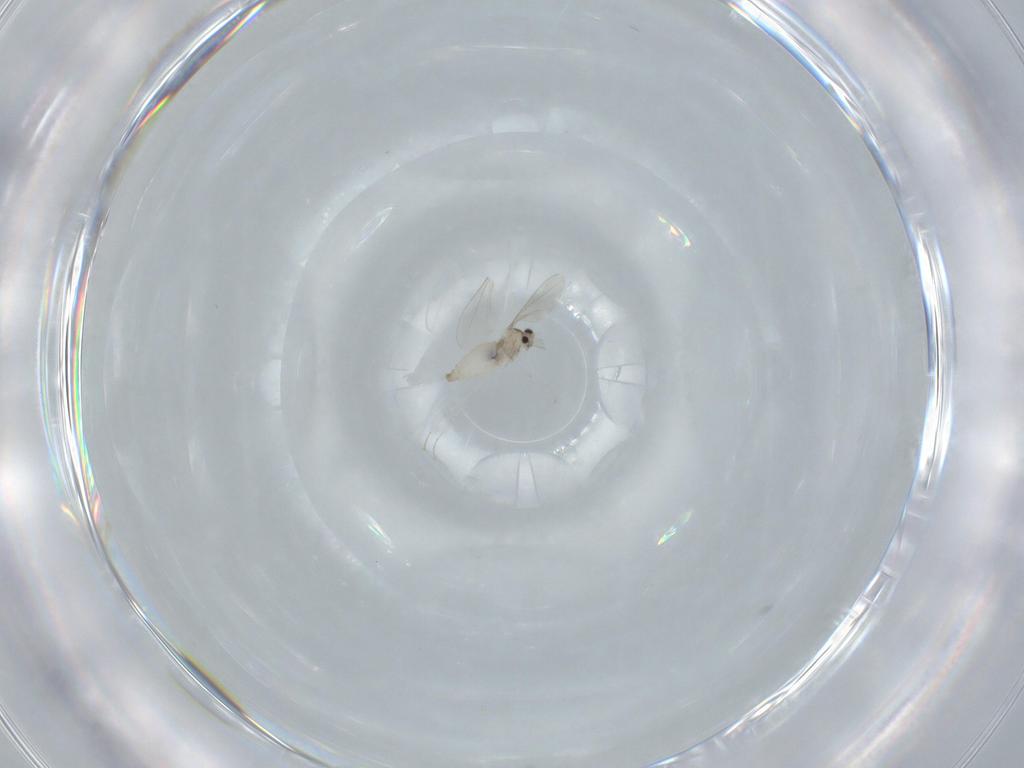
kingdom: Animalia
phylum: Arthropoda
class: Insecta
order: Diptera
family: Cecidomyiidae
